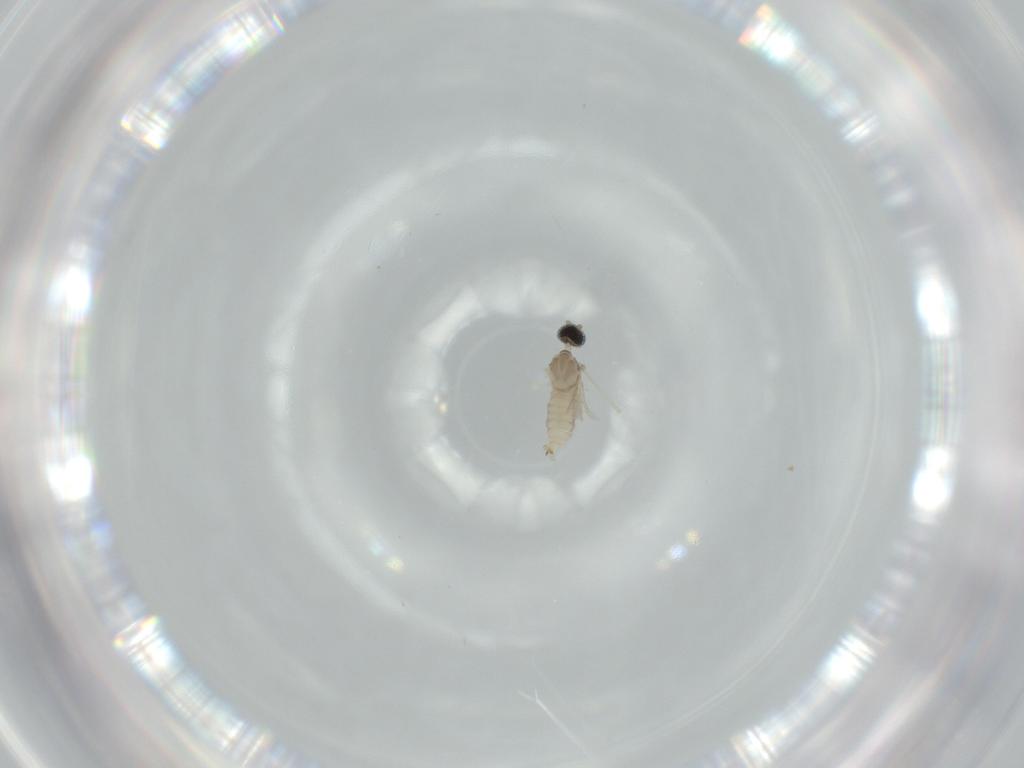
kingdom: Animalia
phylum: Arthropoda
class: Insecta
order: Diptera
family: Cecidomyiidae
